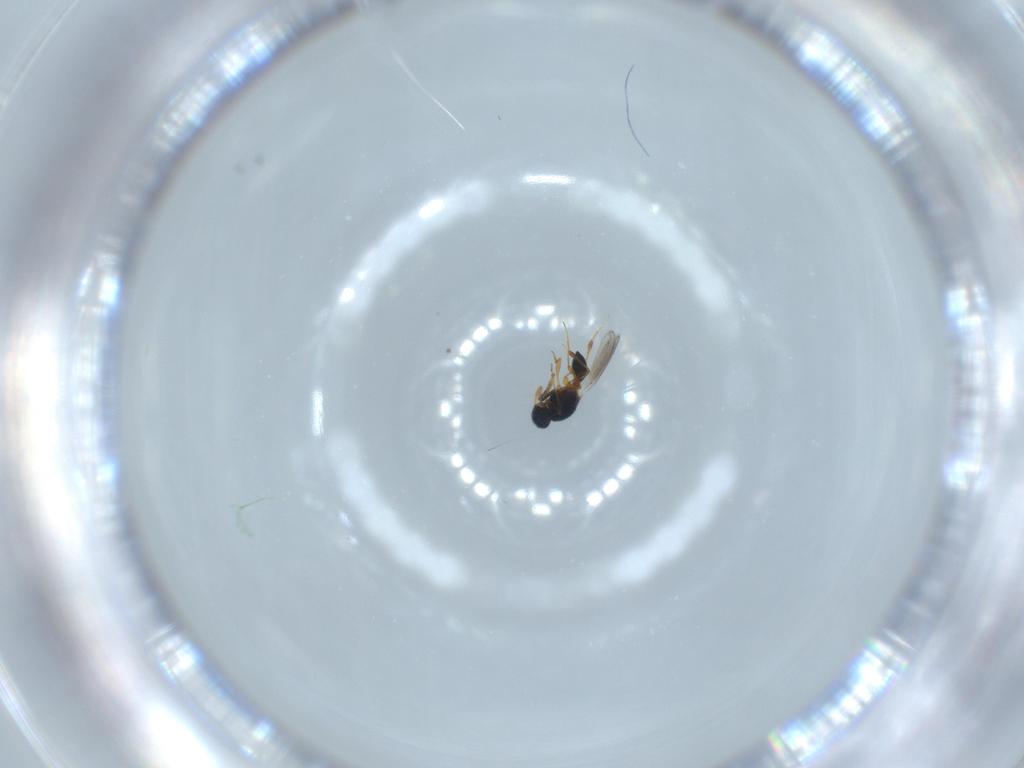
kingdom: Animalia
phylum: Arthropoda
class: Insecta
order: Hymenoptera
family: Platygastridae
